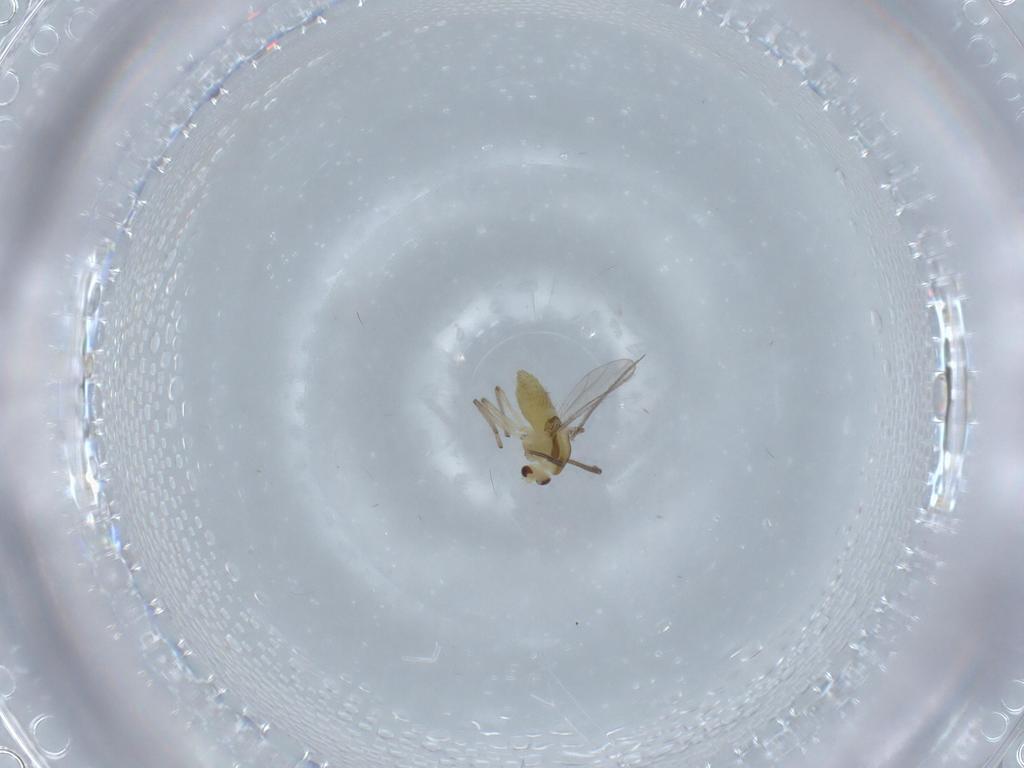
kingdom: Animalia
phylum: Arthropoda
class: Insecta
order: Diptera
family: Chironomidae
